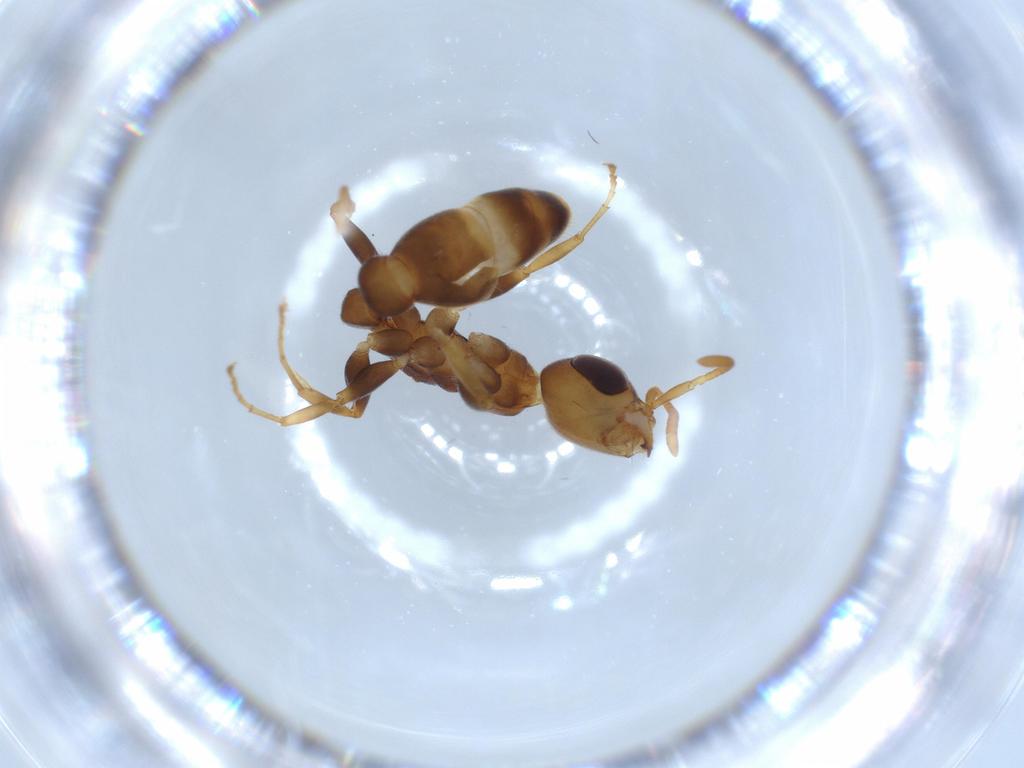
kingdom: Animalia
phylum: Arthropoda
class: Insecta
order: Hymenoptera
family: Formicidae
